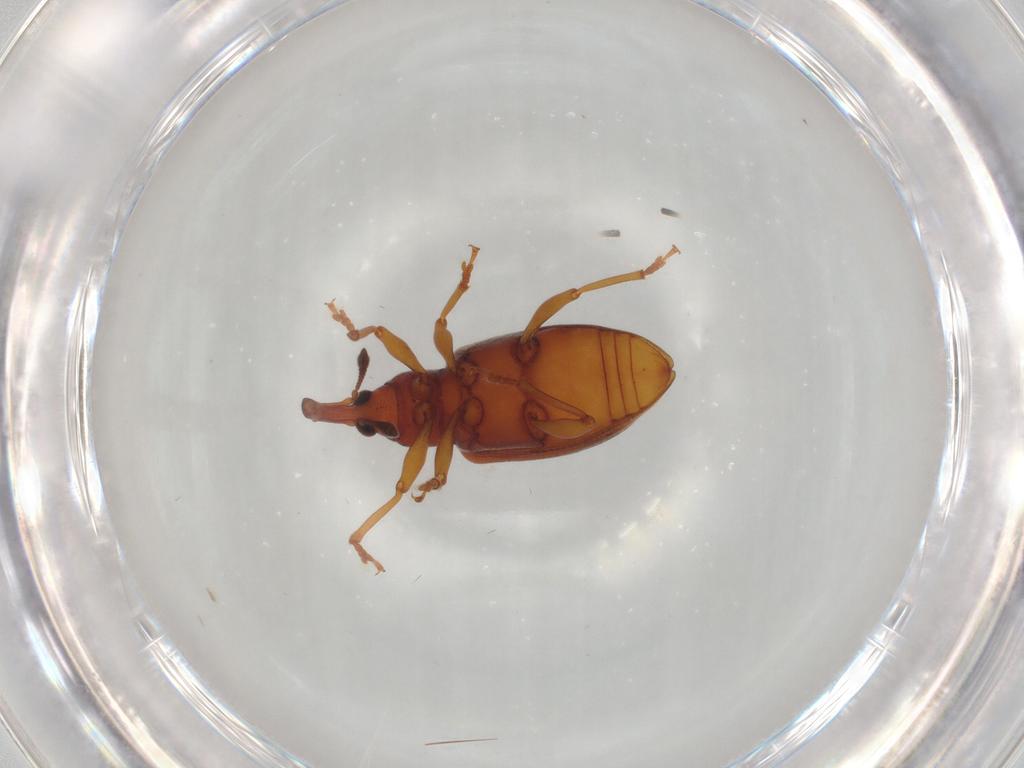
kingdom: Animalia
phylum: Arthropoda
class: Insecta
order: Coleoptera
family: Curculionidae
